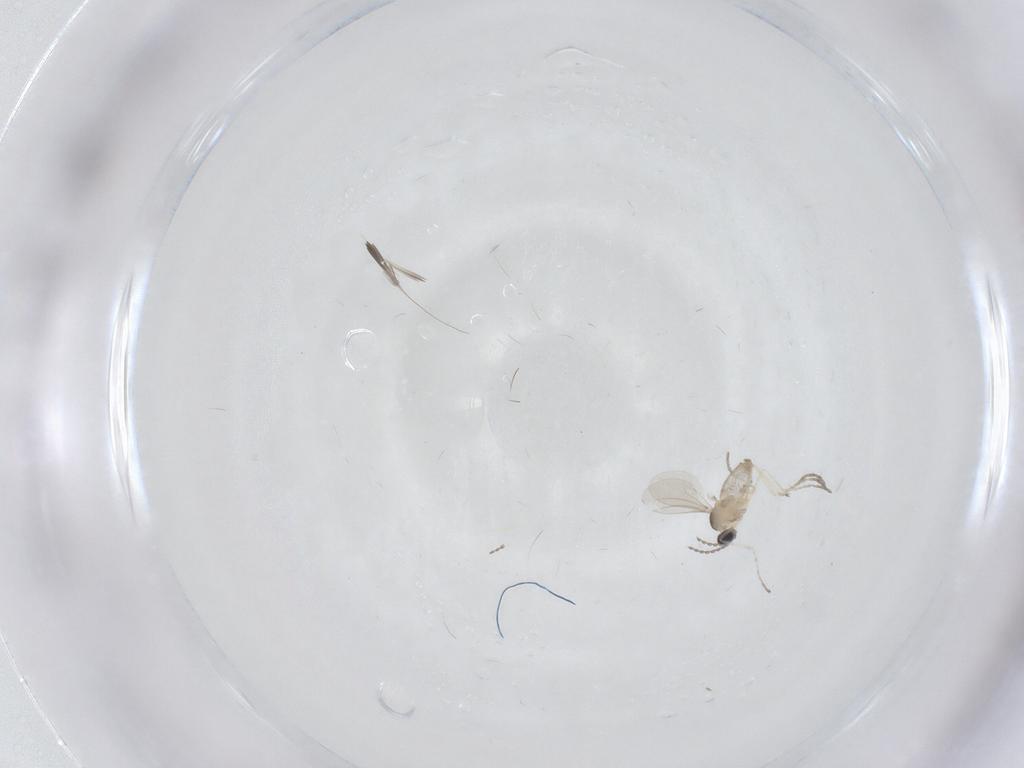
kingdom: Animalia
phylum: Arthropoda
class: Insecta
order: Diptera
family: Cecidomyiidae
